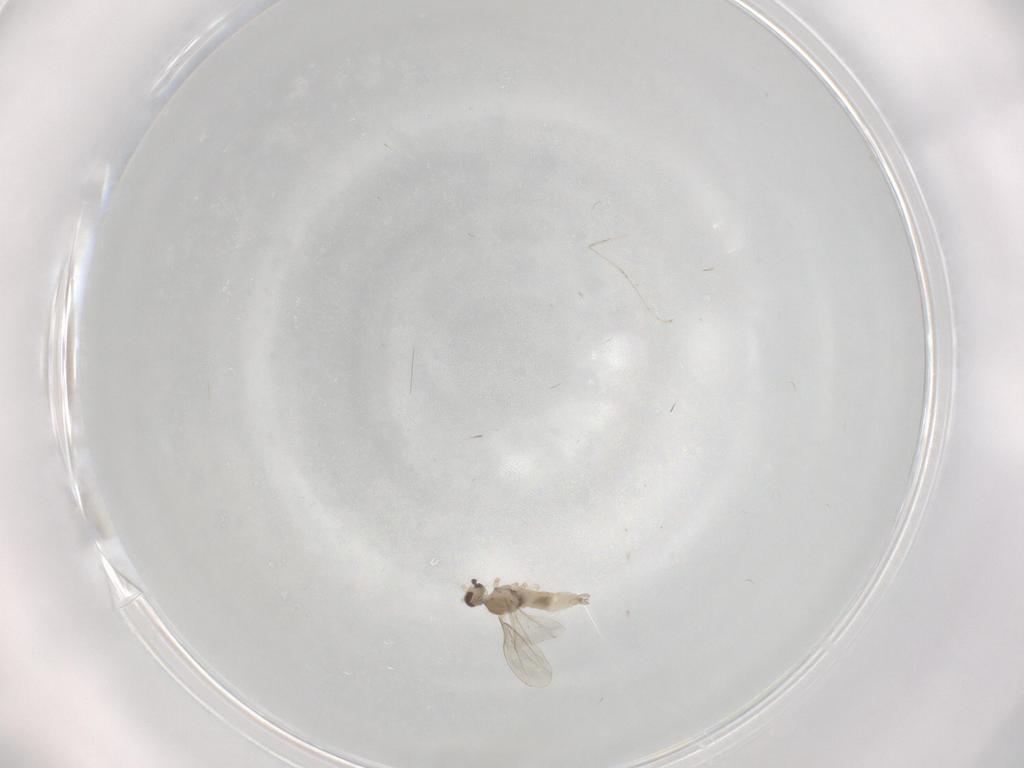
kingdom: Animalia
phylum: Arthropoda
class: Insecta
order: Diptera
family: Cecidomyiidae
